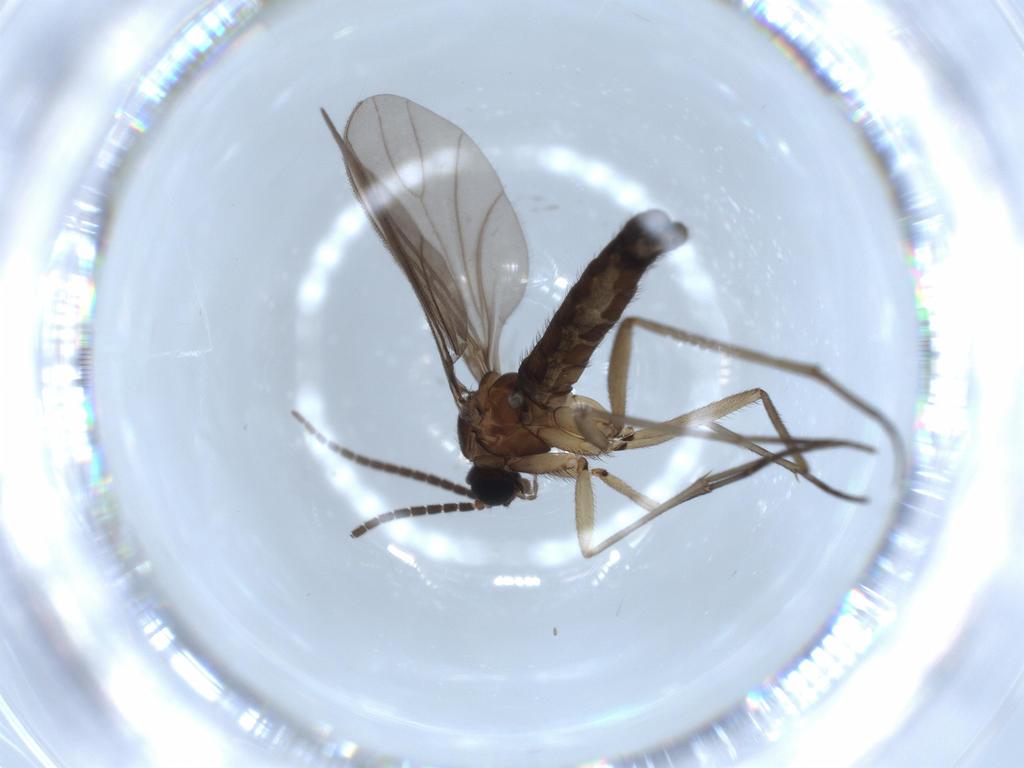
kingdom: Animalia
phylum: Arthropoda
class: Insecta
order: Diptera
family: Sciaridae
